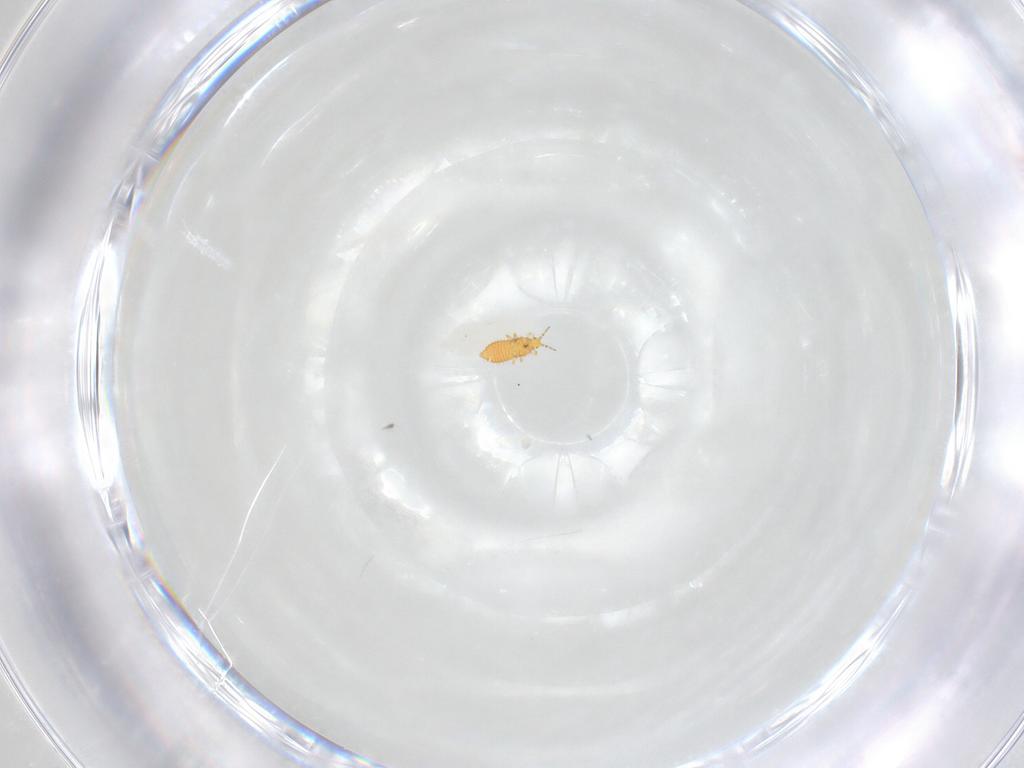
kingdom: Animalia
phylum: Arthropoda
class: Insecta
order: Thysanoptera
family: Thripidae
